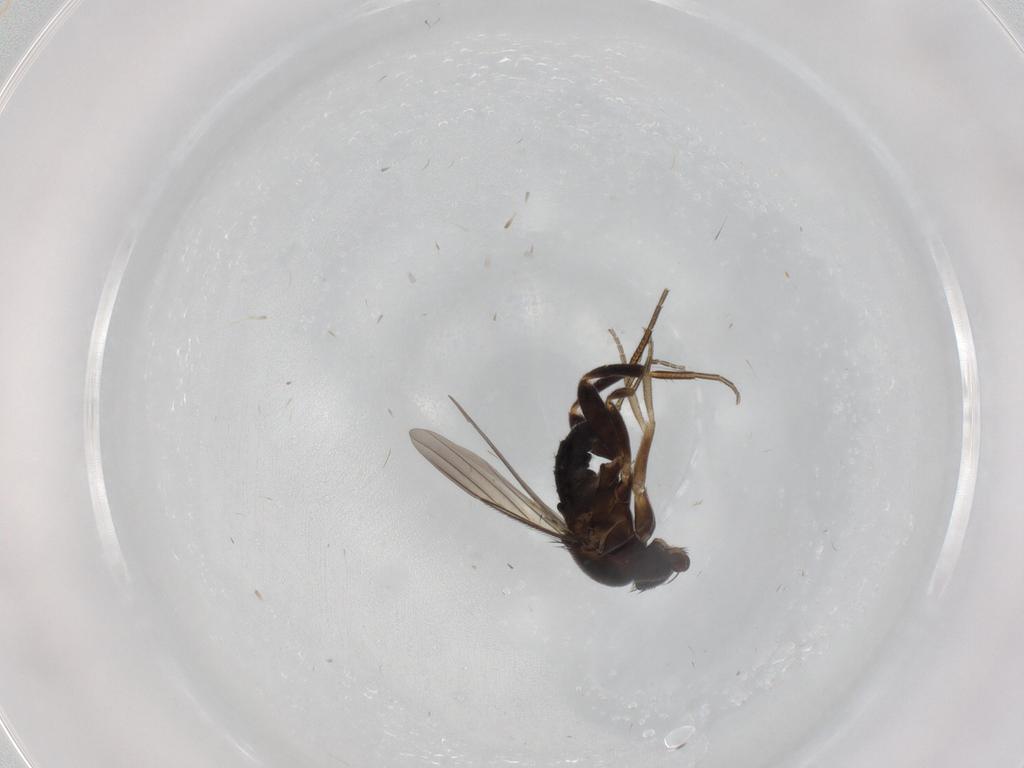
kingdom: Animalia
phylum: Arthropoda
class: Insecta
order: Diptera
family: Phoridae
